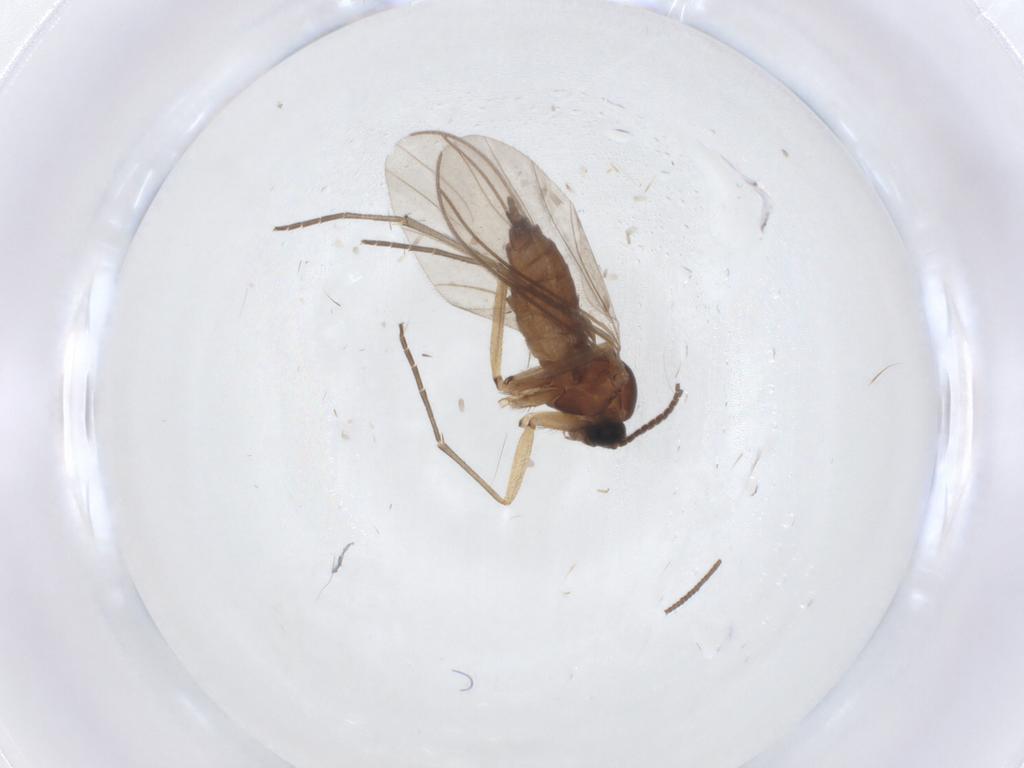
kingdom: Animalia
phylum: Arthropoda
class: Insecta
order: Diptera
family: Sciaridae
